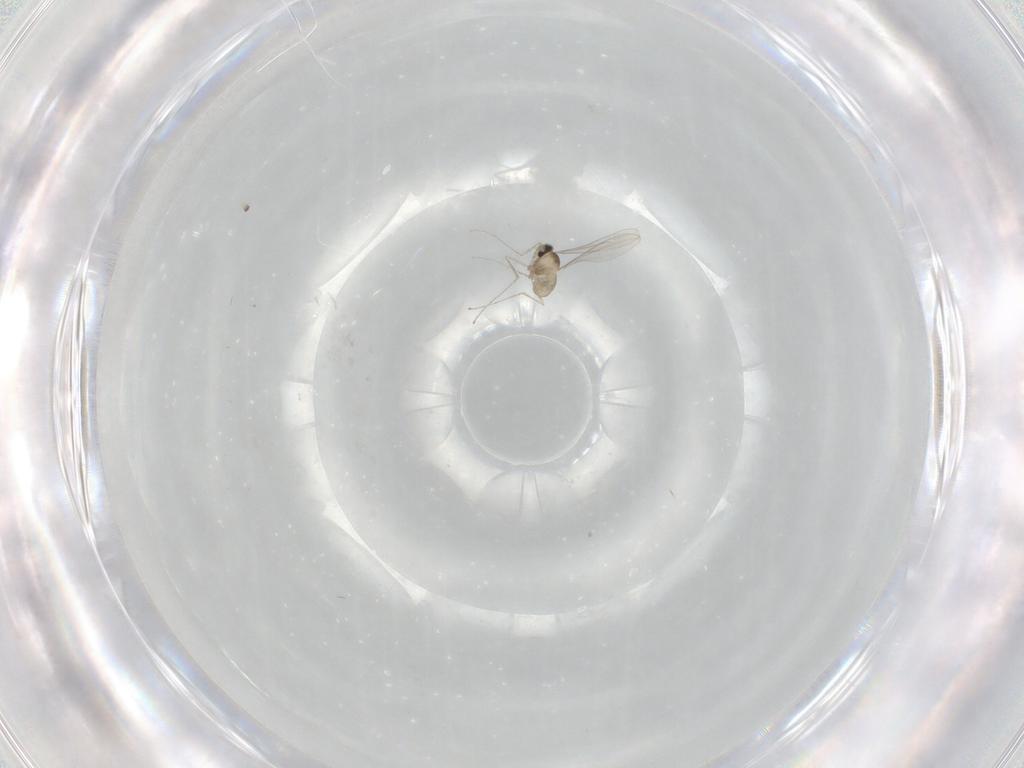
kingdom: Animalia
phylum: Arthropoda
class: Insecta
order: Diptera
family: Cecidomyiidae
